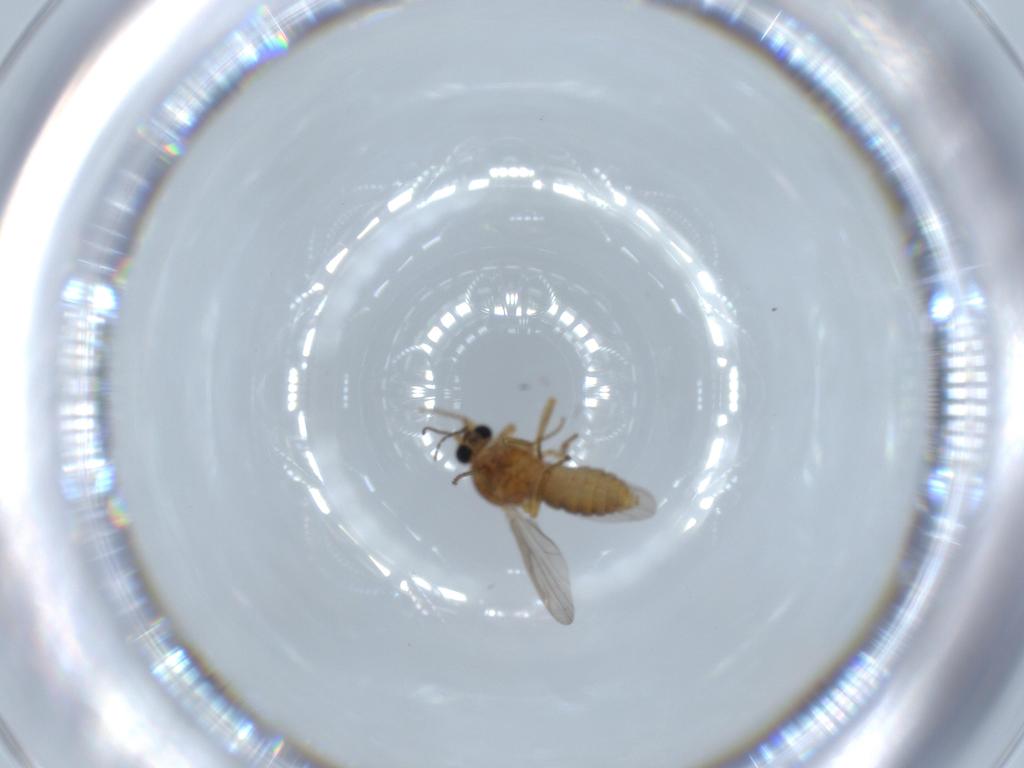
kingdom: Animalia
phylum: Arthropoda
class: Insecta
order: Diptera
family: Ceratopogonidae
